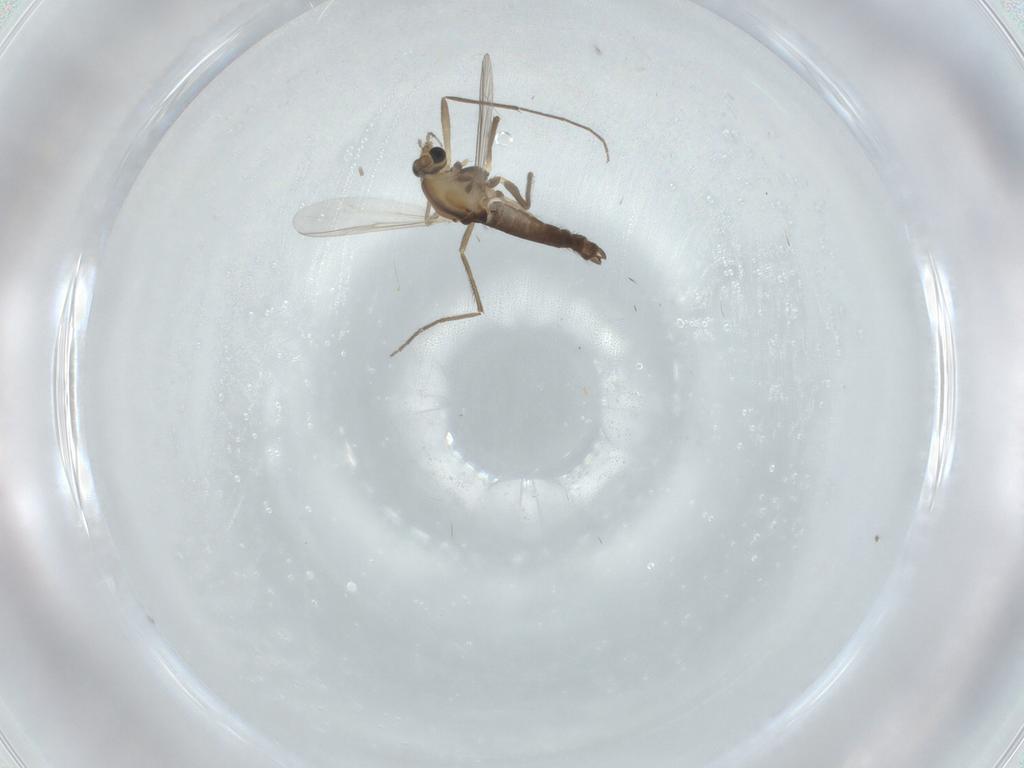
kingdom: Animalia
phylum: Arthropoda
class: Insecta
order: Diptera
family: Chironomidae
